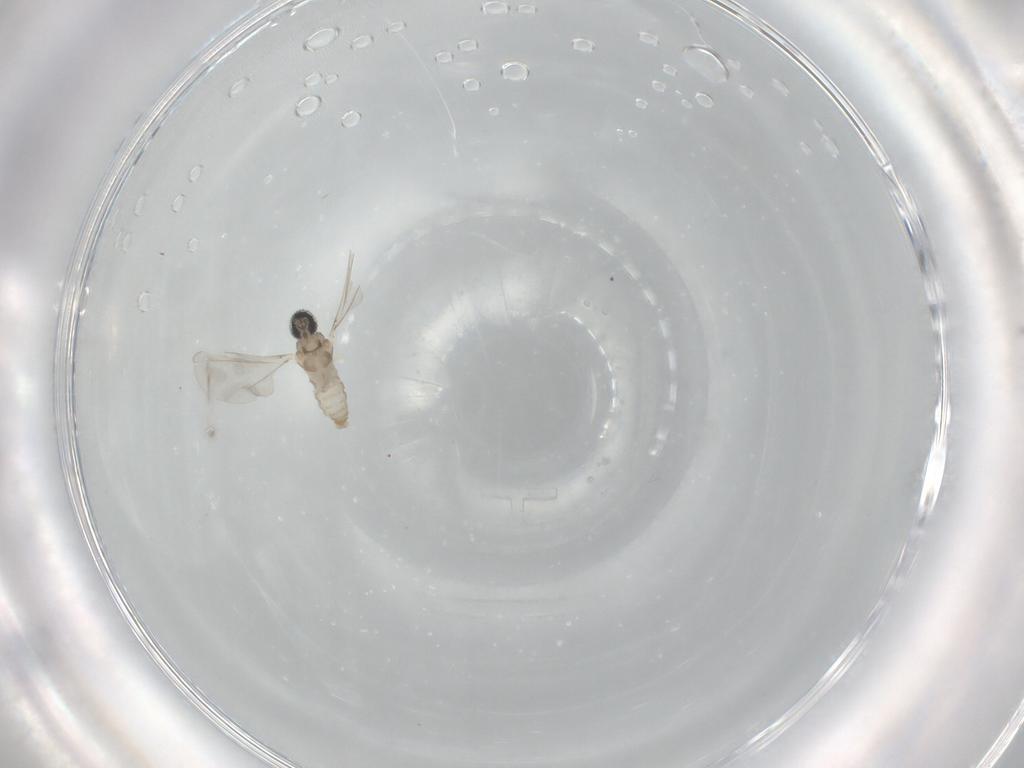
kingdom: Animalia
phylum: Arthropoda
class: Insecta
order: Diptera
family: Cecidomyiidae
